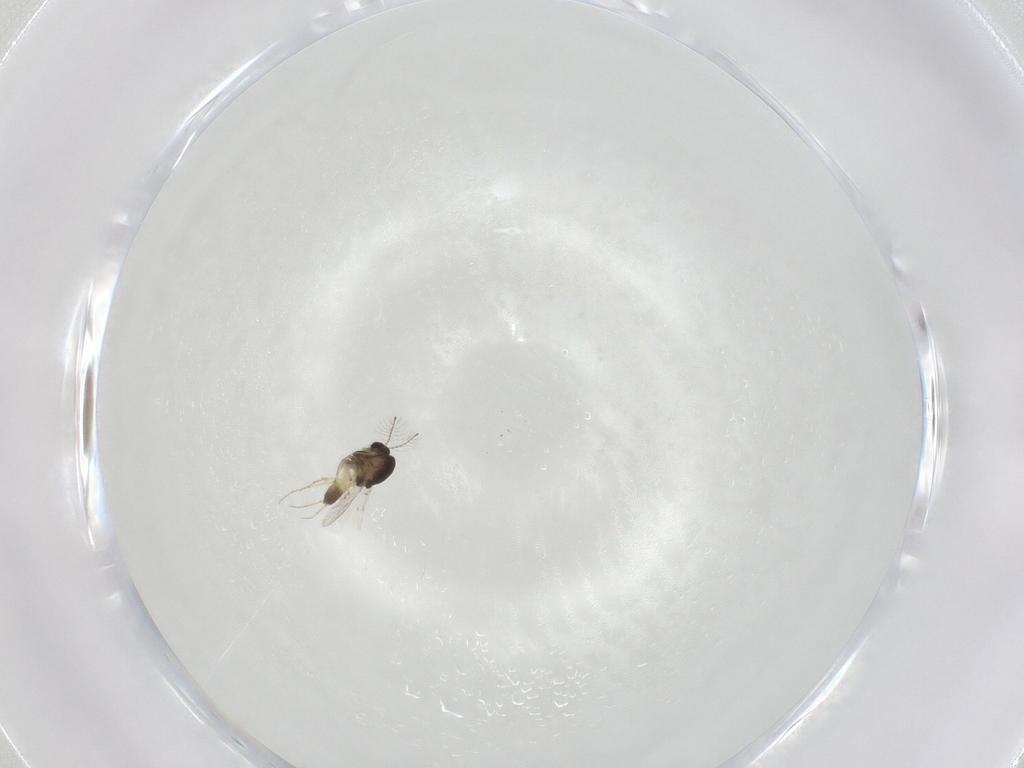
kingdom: Animalia
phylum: Arthropoda
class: Insecta
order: Diptera
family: Chironomidae
